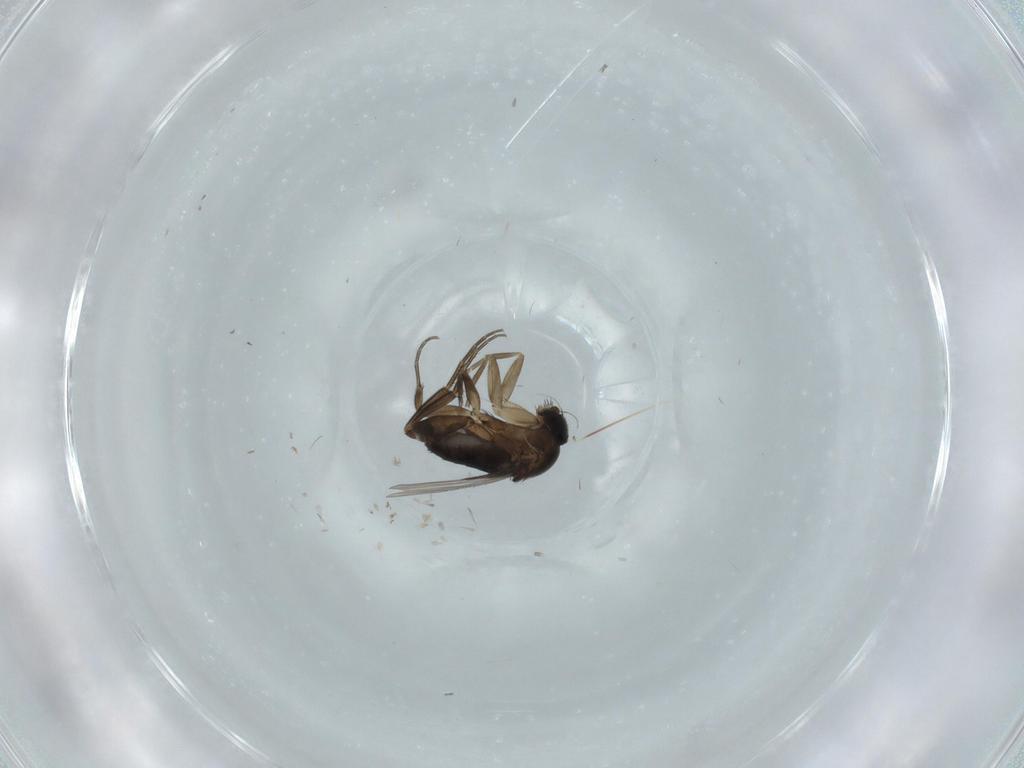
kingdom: Animalia
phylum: Arthropoda
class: Insecta
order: Diptera
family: Phoridae
